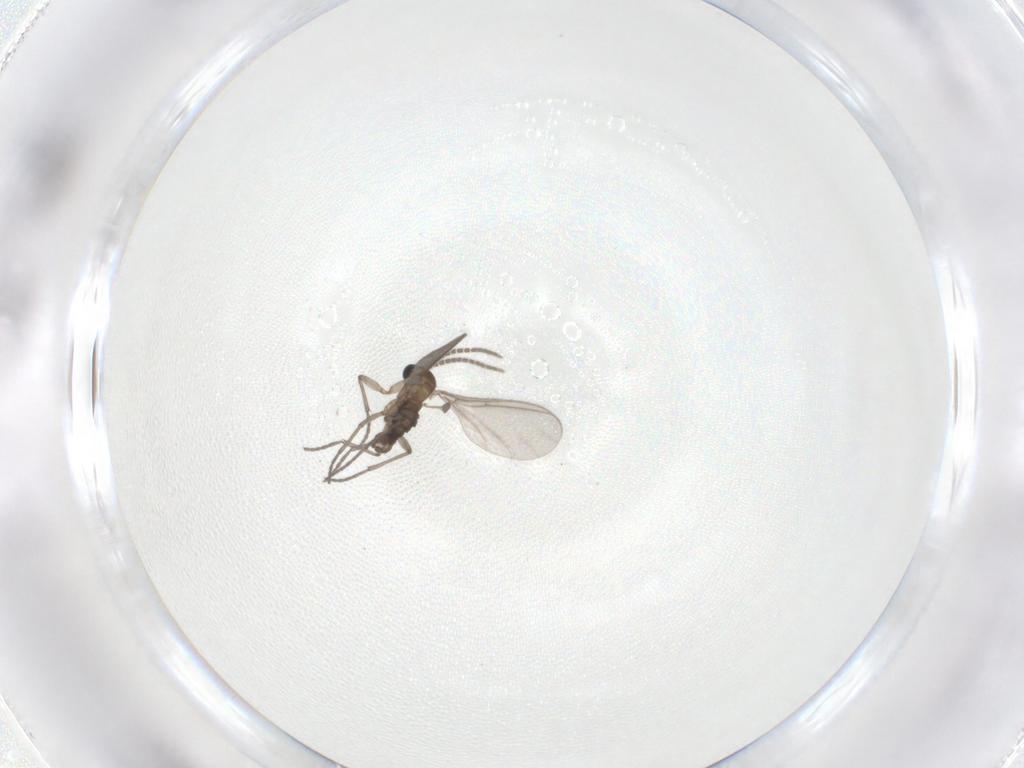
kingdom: Animalia
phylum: Arthropoda
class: Insecta
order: Diptera
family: Sciaridae
